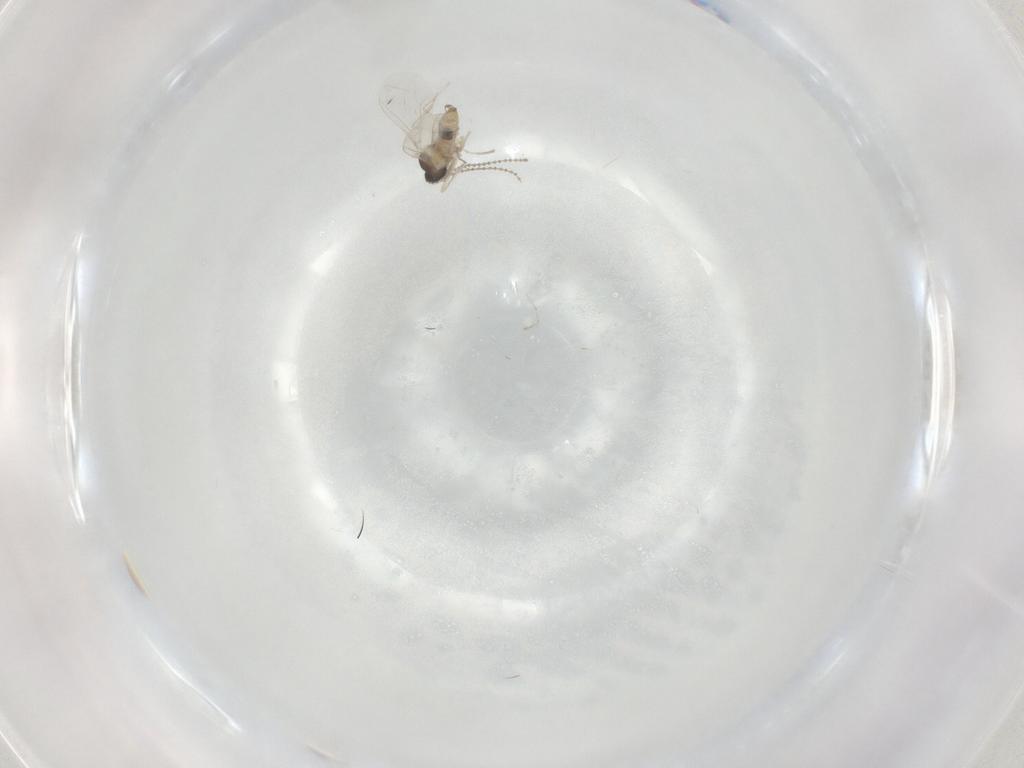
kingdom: Animalia
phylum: Arthropoda
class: Insecta
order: Diptera
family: Cecidomyiidae
